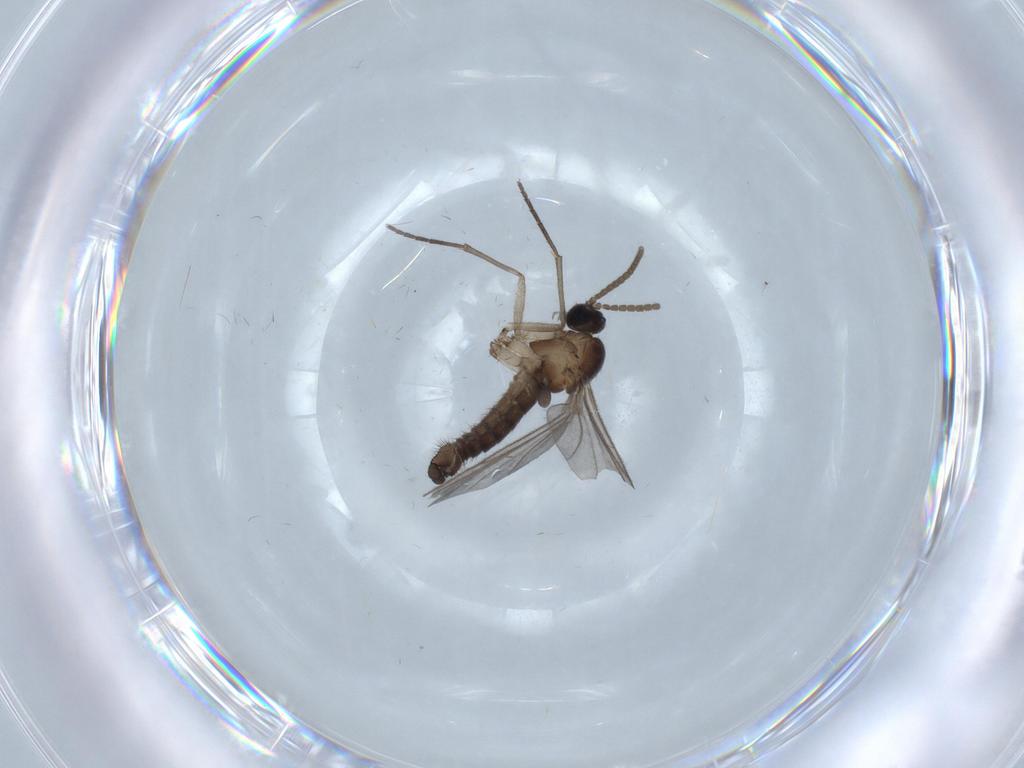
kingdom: Animalia
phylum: Arthropoda
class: Insecta
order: Diptera
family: Limoniidae
